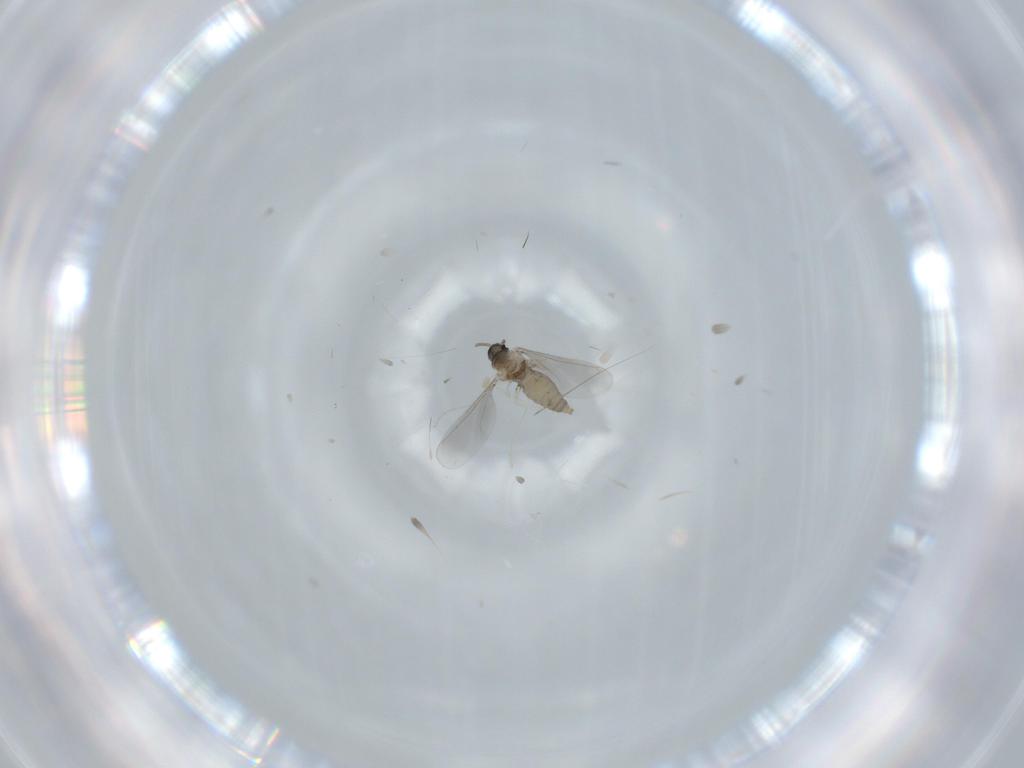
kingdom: Animalia
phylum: Arthropoda
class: Insecta
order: Diptera
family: Cecidomyiidae
